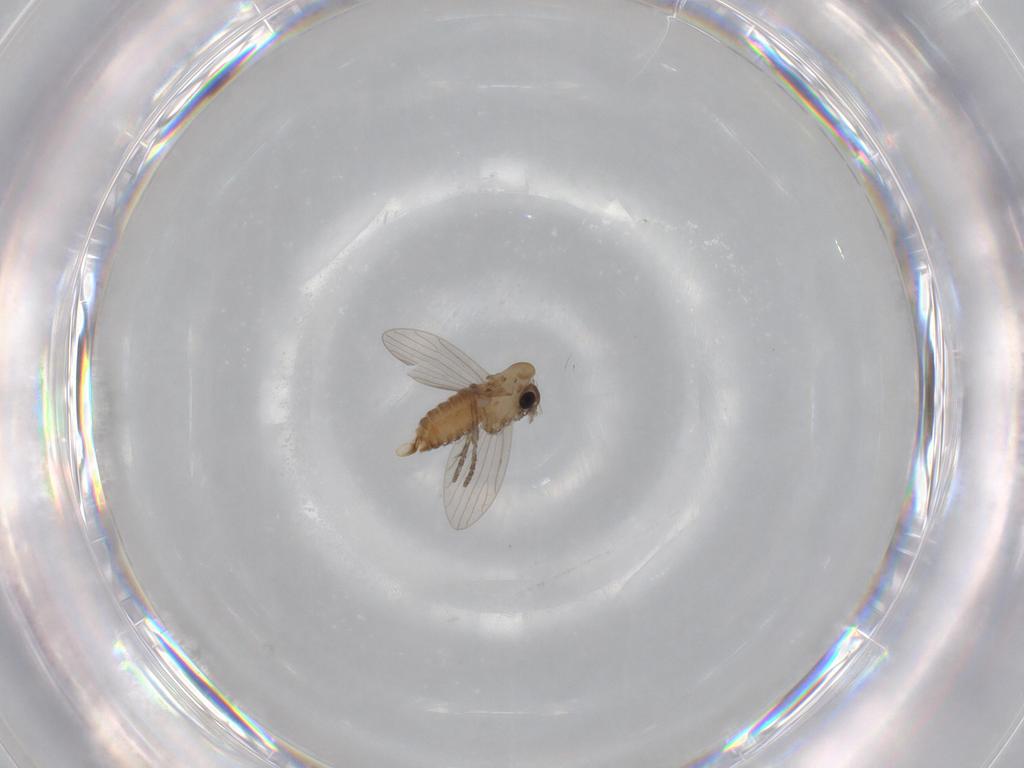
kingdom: Animalia
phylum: Arthropoda
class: Insecta
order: Diptera
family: Psychodidae
